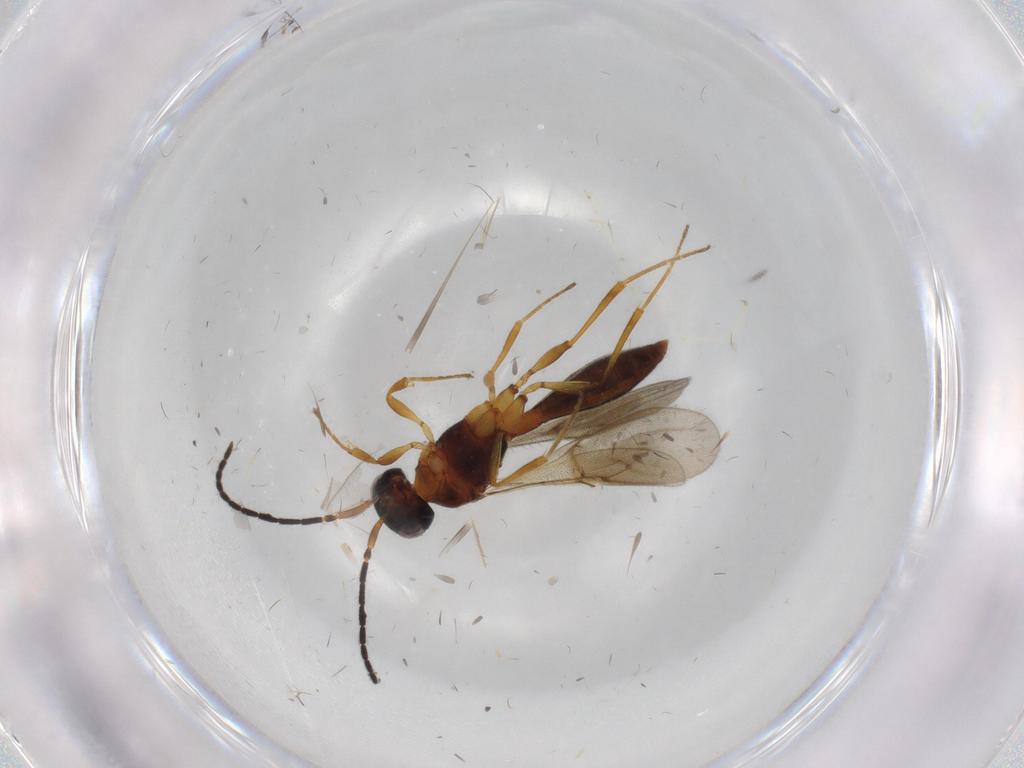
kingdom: Animalia
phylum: Arthropoda
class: Insecta
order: Hymenoptera
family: Scelionidae
